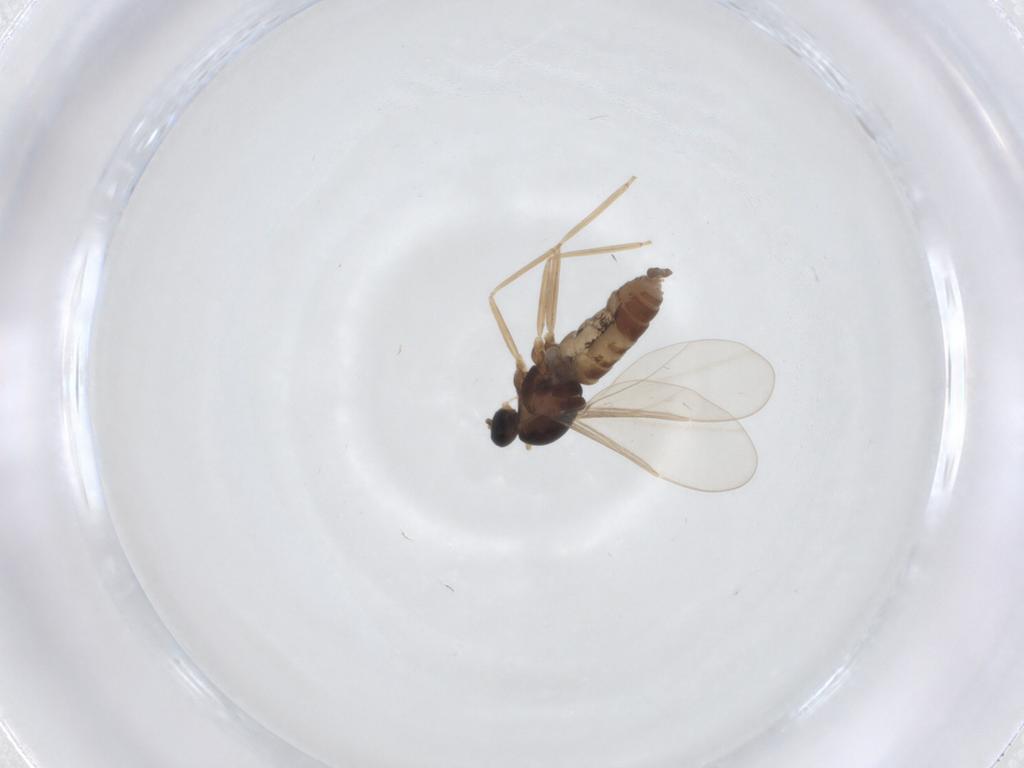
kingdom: Animalia
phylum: Arthropoda
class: Insecta
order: Diptera
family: Cecidomyiidae
